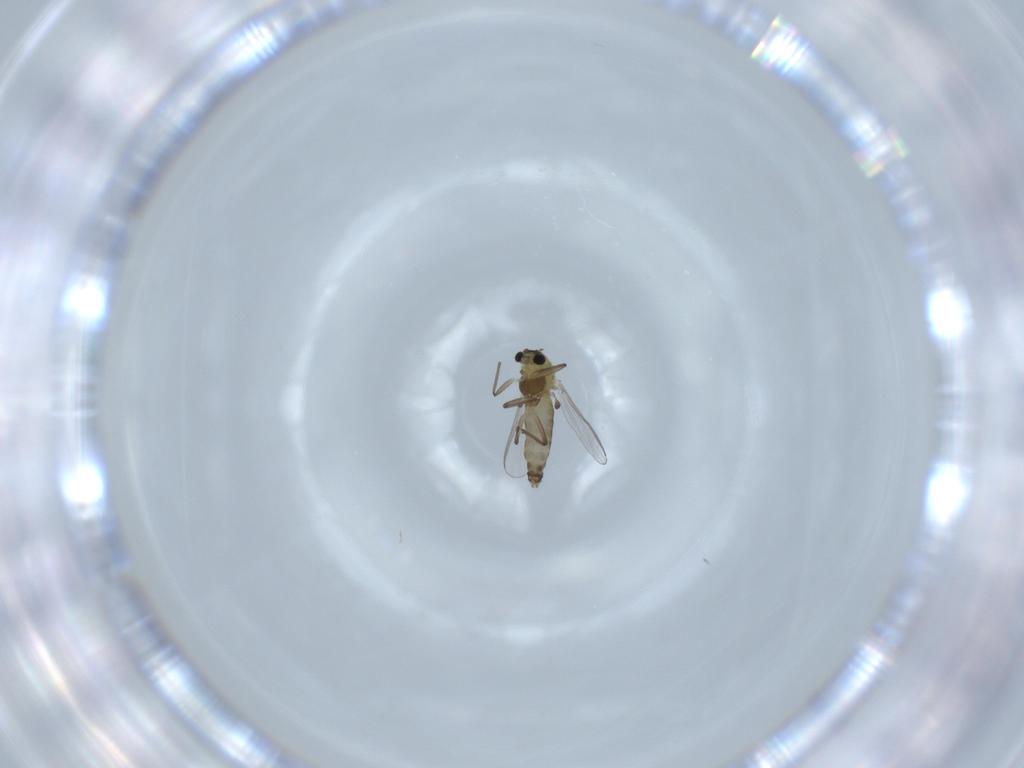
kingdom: Animalia
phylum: Arthropoda
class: Insecta
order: Diptera
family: Chironomidae
